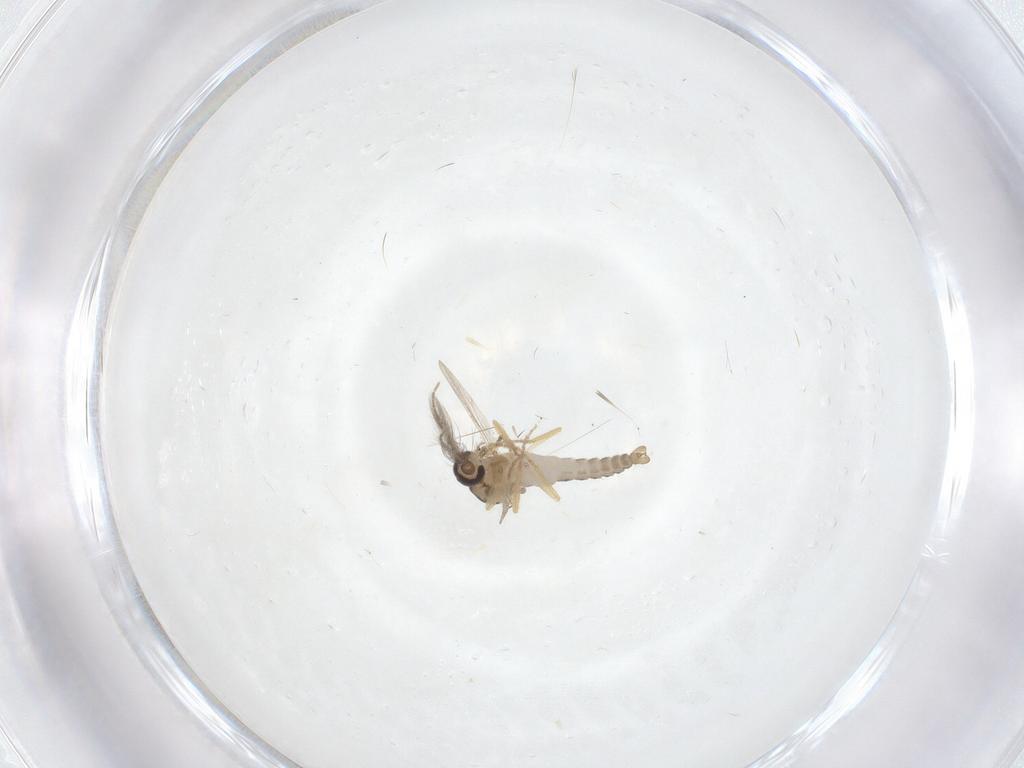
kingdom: Animalia
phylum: Arthropoda
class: Insecta
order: Diptera
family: Ceratopogonidae
